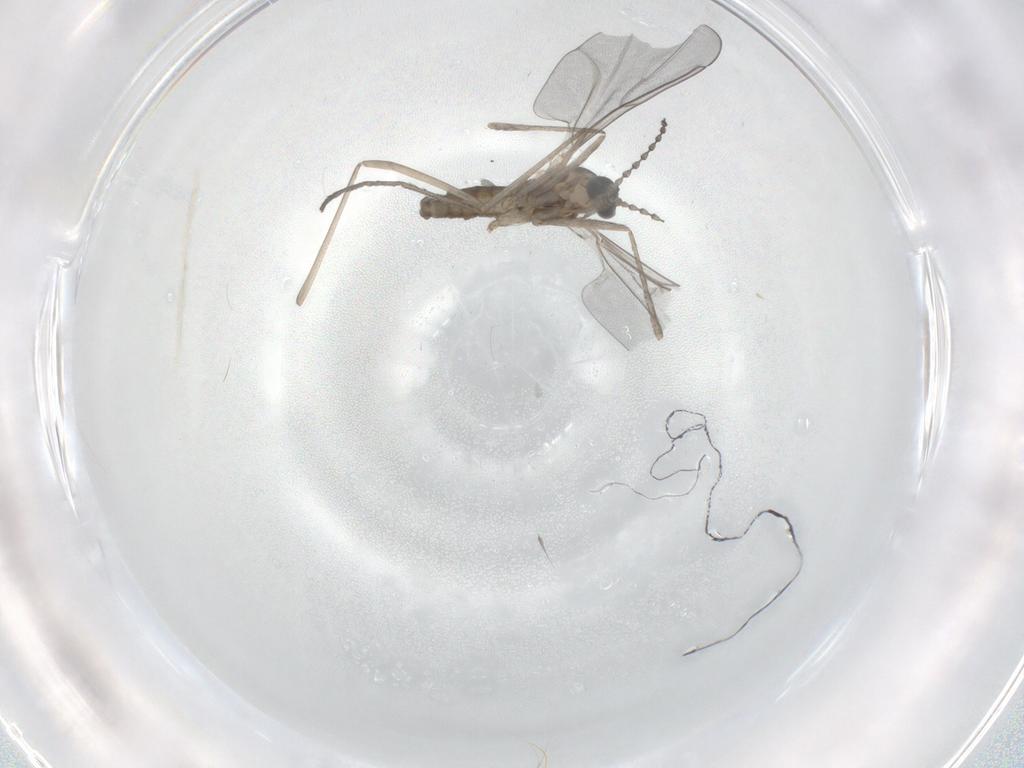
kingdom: Animalia
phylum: Arthropoda
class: Insecta
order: Diptera
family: Cecidomyiidae
